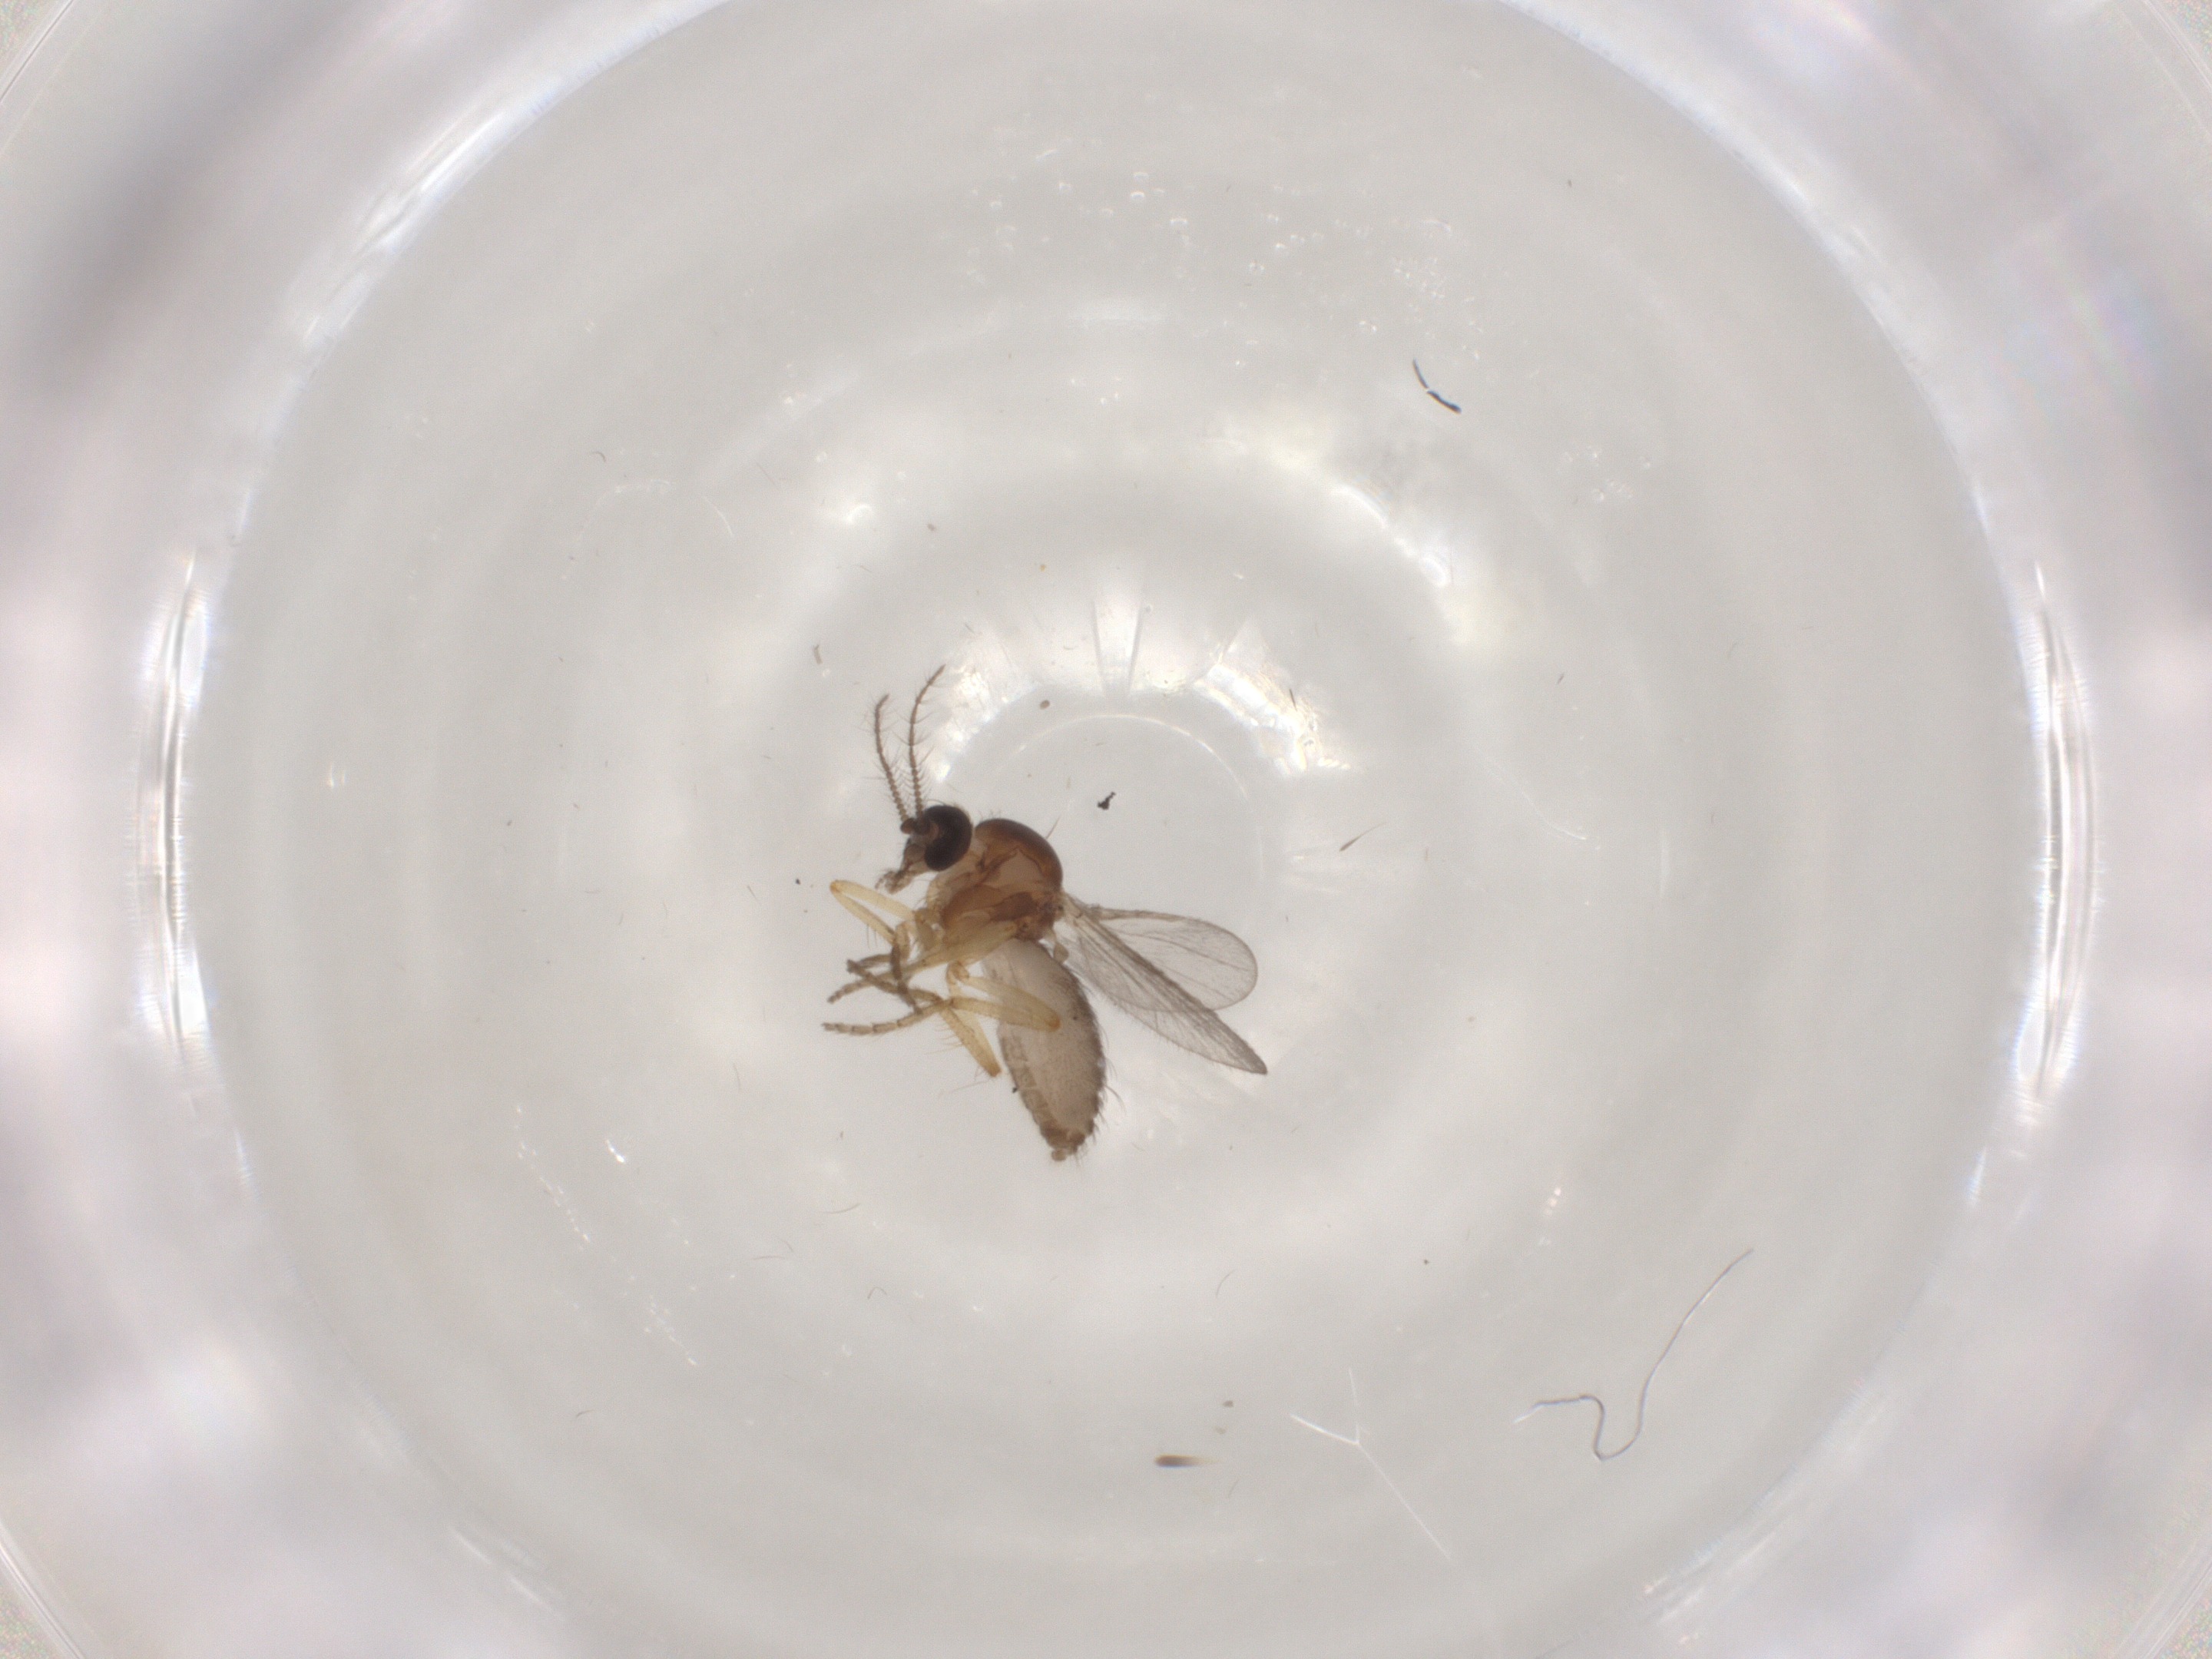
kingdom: Animalia
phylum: Arthropoda
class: Insecta
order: Diptera
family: Ceratopogonidae
